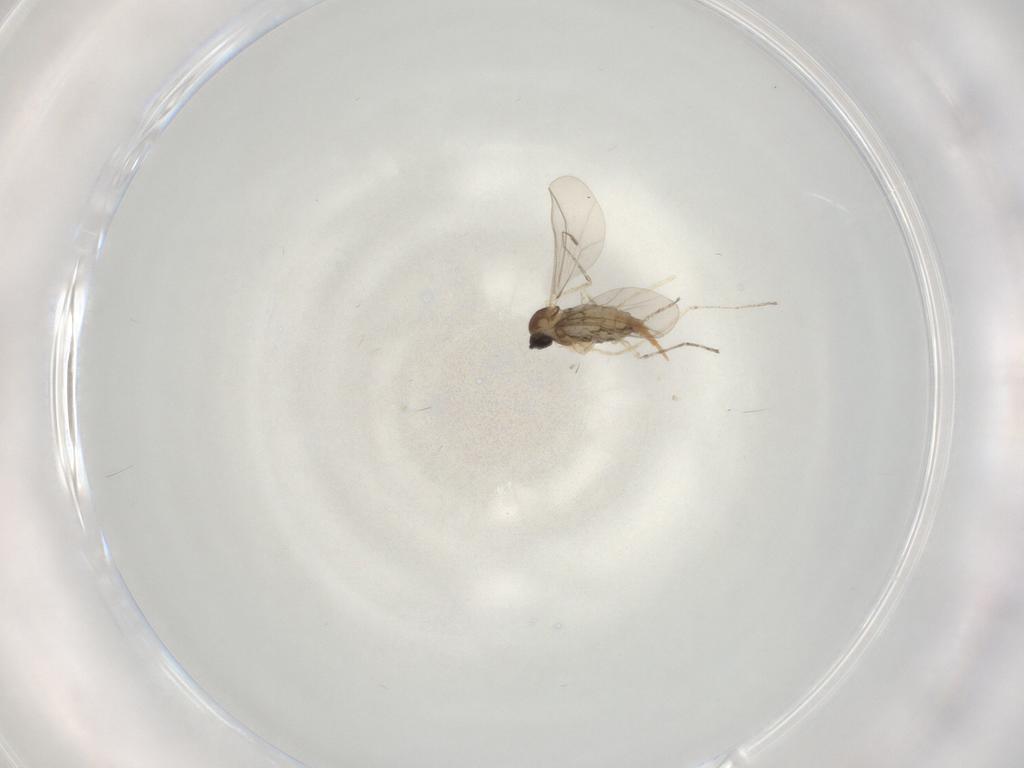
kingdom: Animalia
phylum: Arthropoda
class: Insecta
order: Diptera
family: Cecidomyiidae
